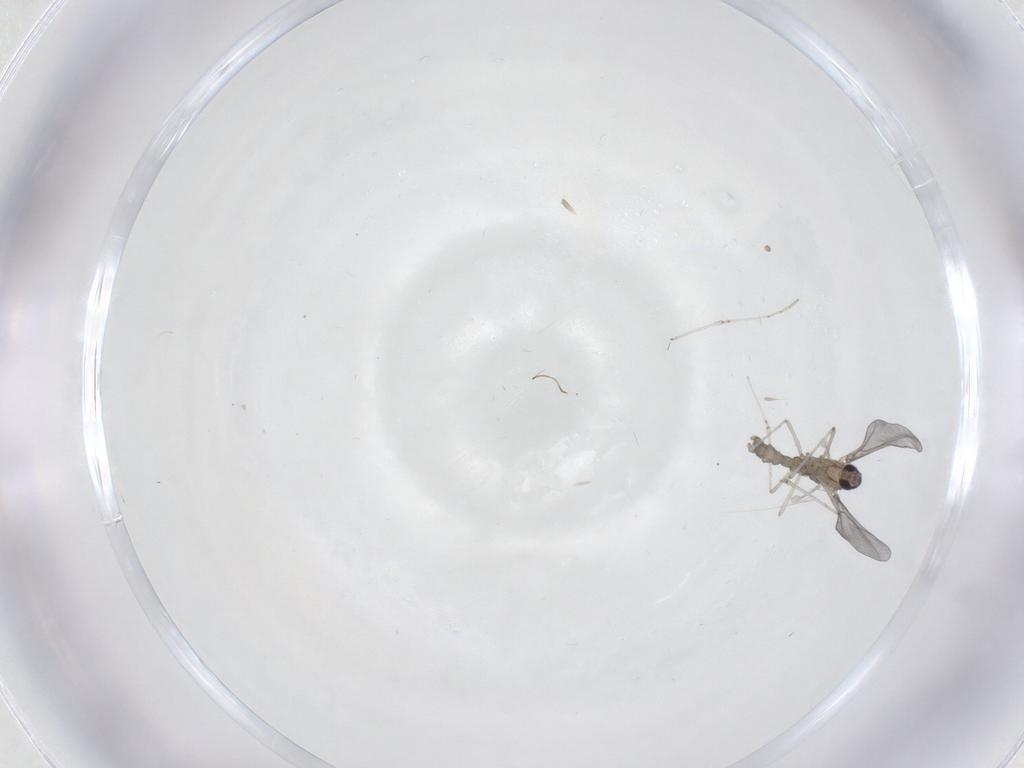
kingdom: Animalia
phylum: Arthropoda
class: Insecta
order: Diptera
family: Cecidomyiidae
